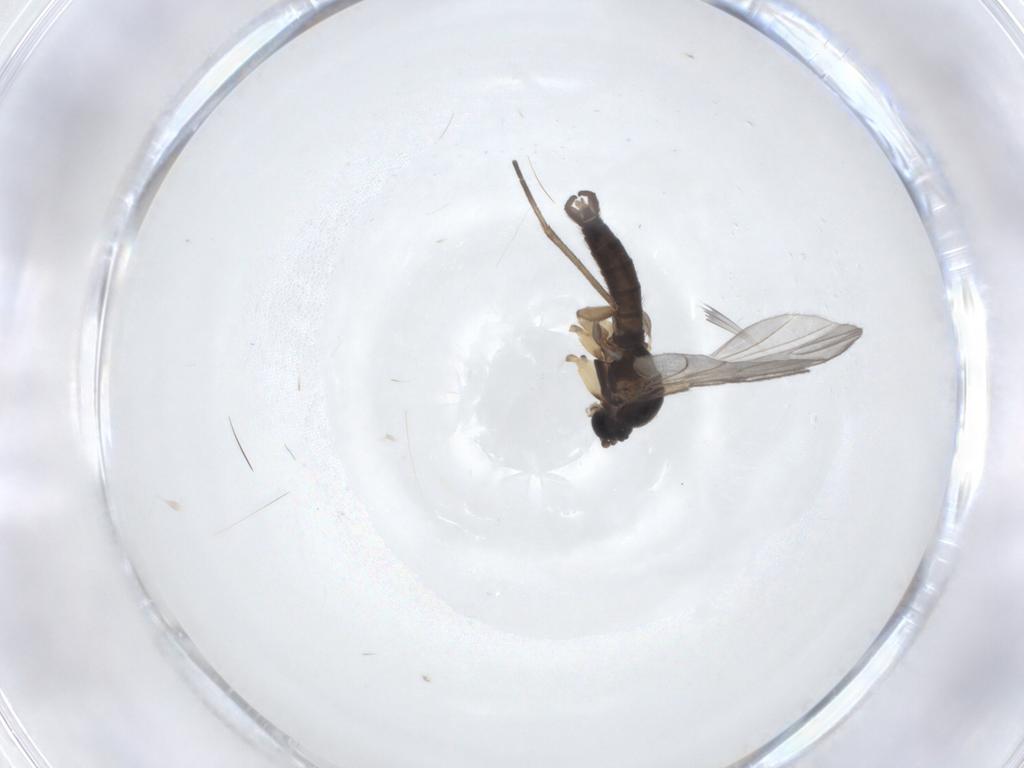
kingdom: Animalia
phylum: Arthropoda
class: Insecta
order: Diptera
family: Sciaridae
